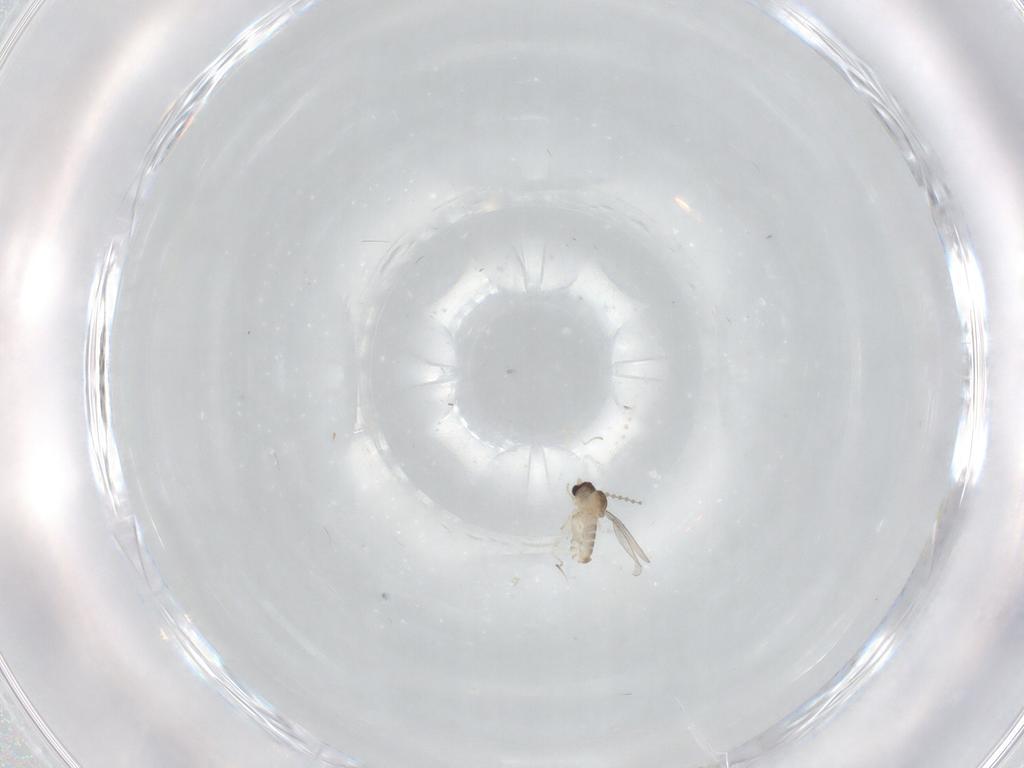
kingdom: Animalia
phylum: Arthropoda
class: Insecta
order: Diptera
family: Cecidomyiidae
